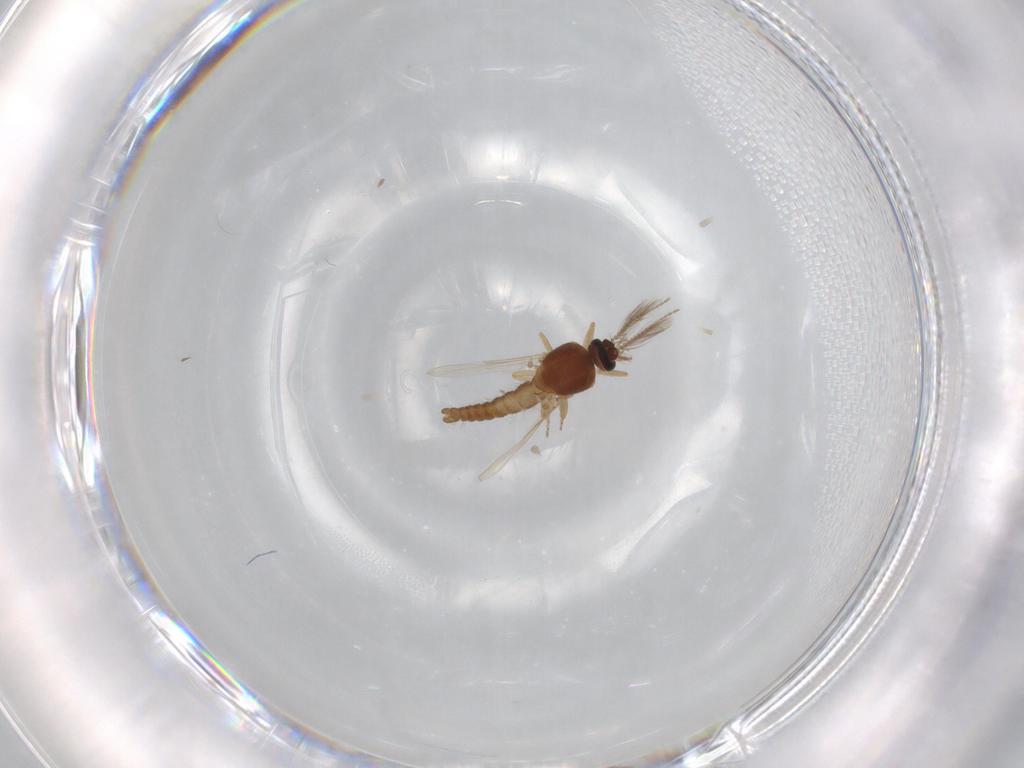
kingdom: Animalia
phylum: Arthropoda
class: Insecta
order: Diptera
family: Ceratopogonidae
